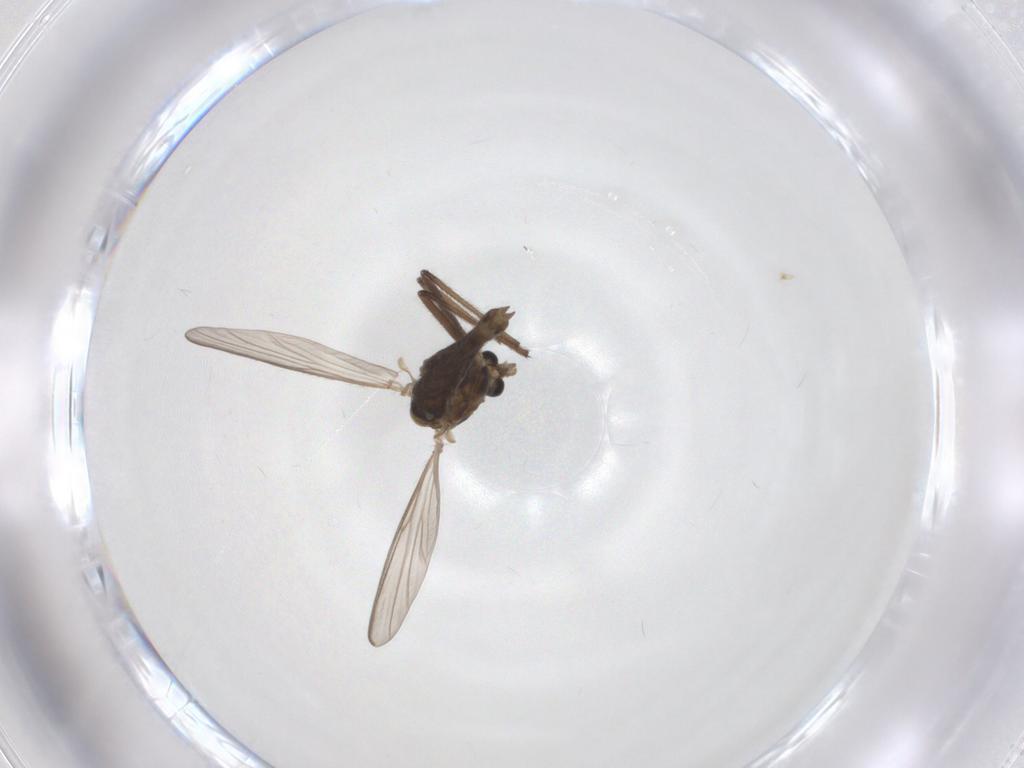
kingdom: Animalia
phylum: Arthropoda
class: Insecta
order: Diptera
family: Chironomidae
